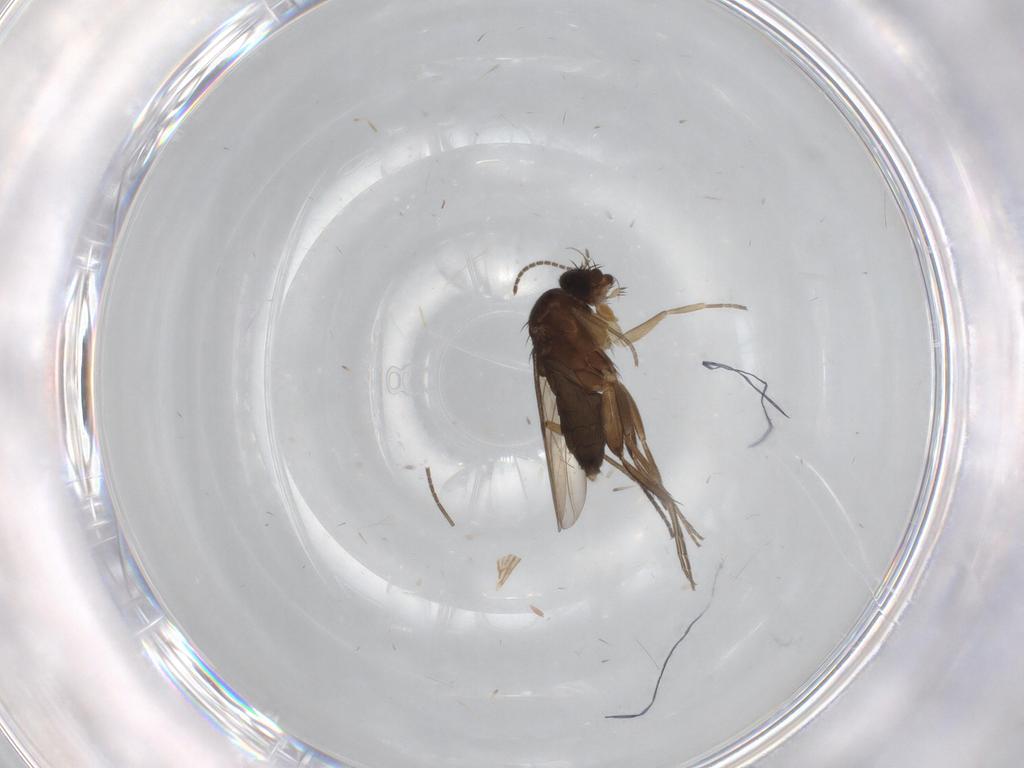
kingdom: Animalia
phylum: Arthropoda
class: Insecta
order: Diptera
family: Phoridae
